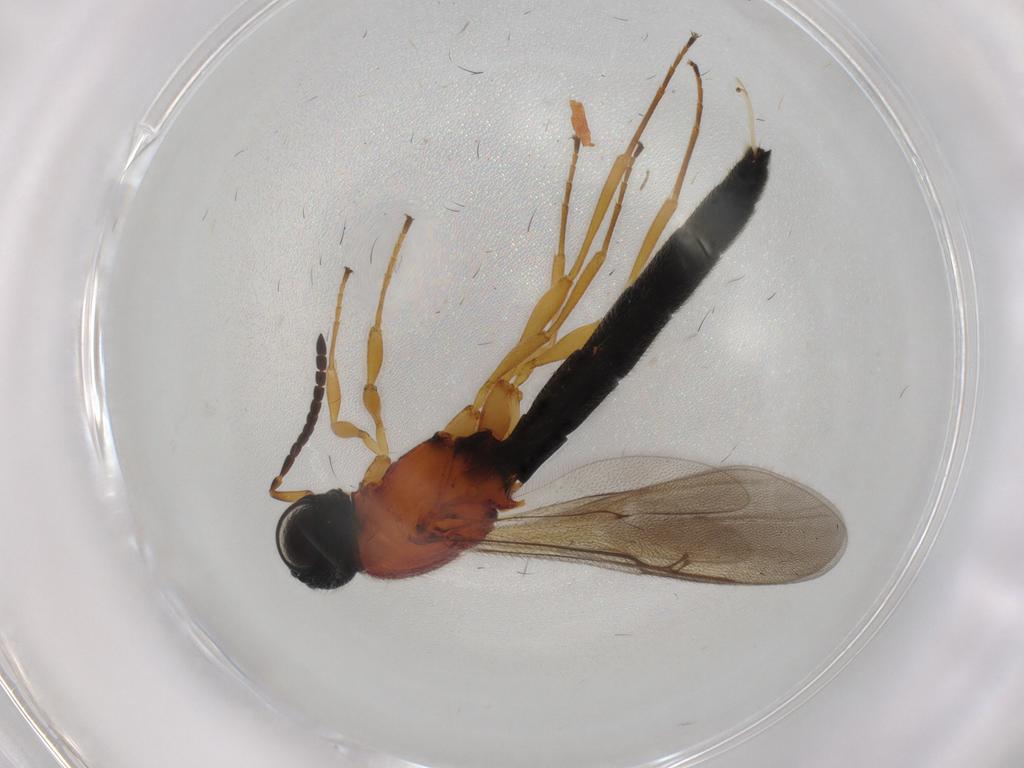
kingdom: Animalia
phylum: Arthropoda
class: Insecta
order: Hymenoptera
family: Scelionidae
